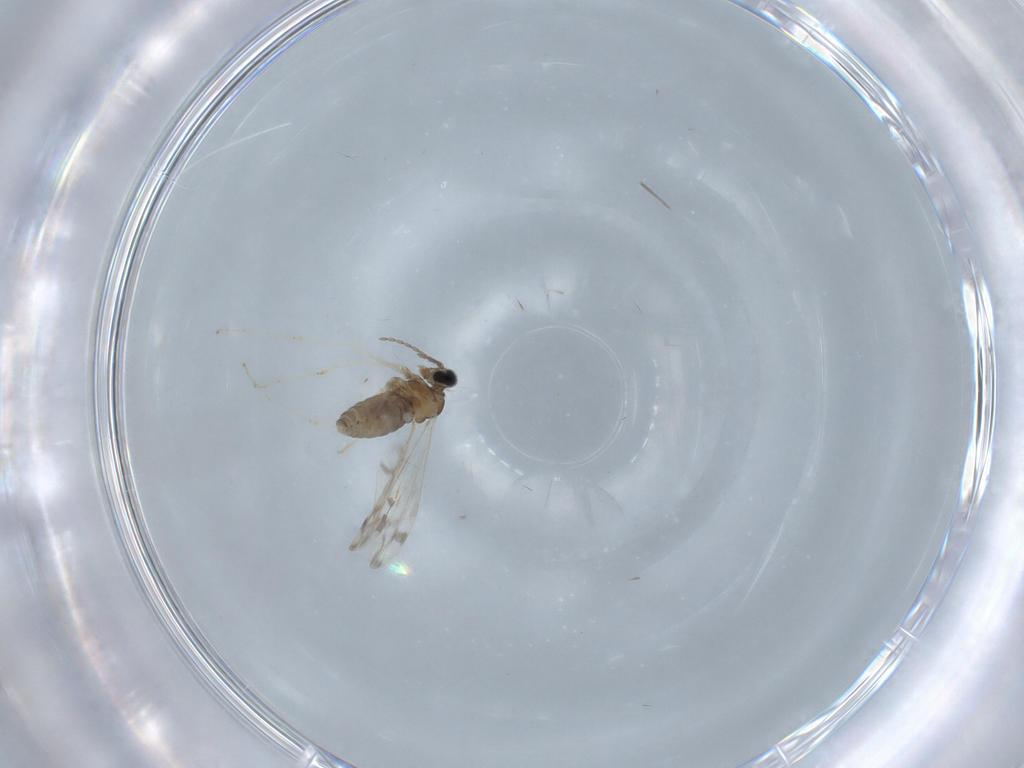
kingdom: Animalia
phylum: Arthropoda
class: Insecta
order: Diptera
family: Cecidomyiidae
